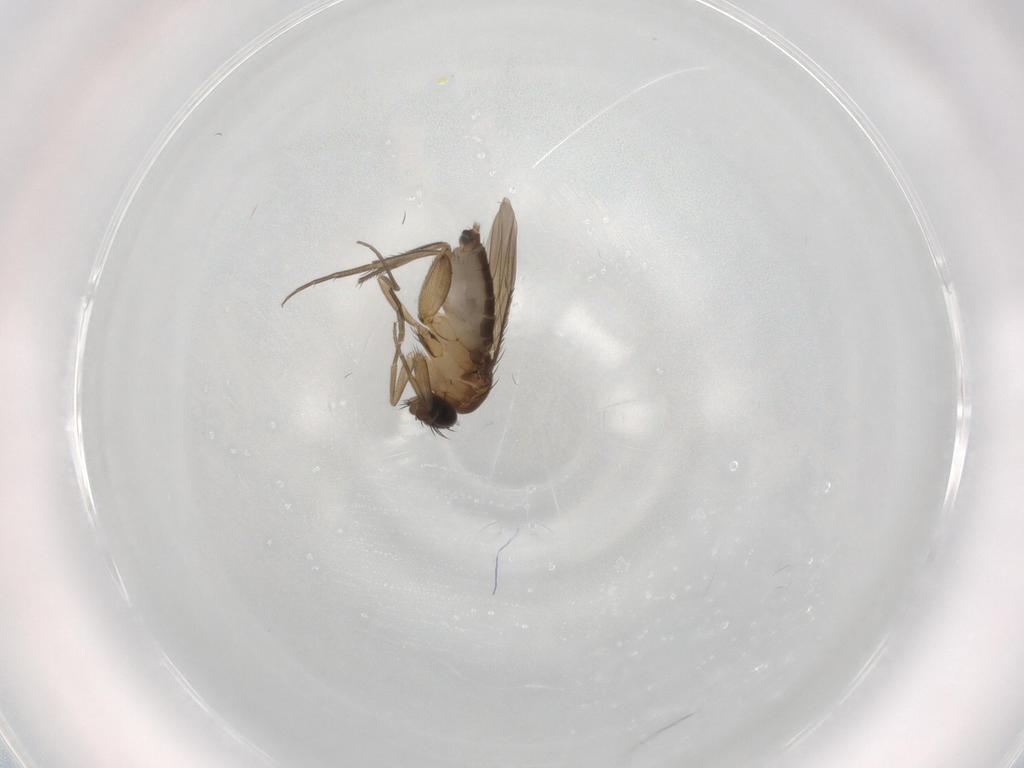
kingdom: Animalia
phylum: Arthropoda
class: Insecta
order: Diptera
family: Phoridae
